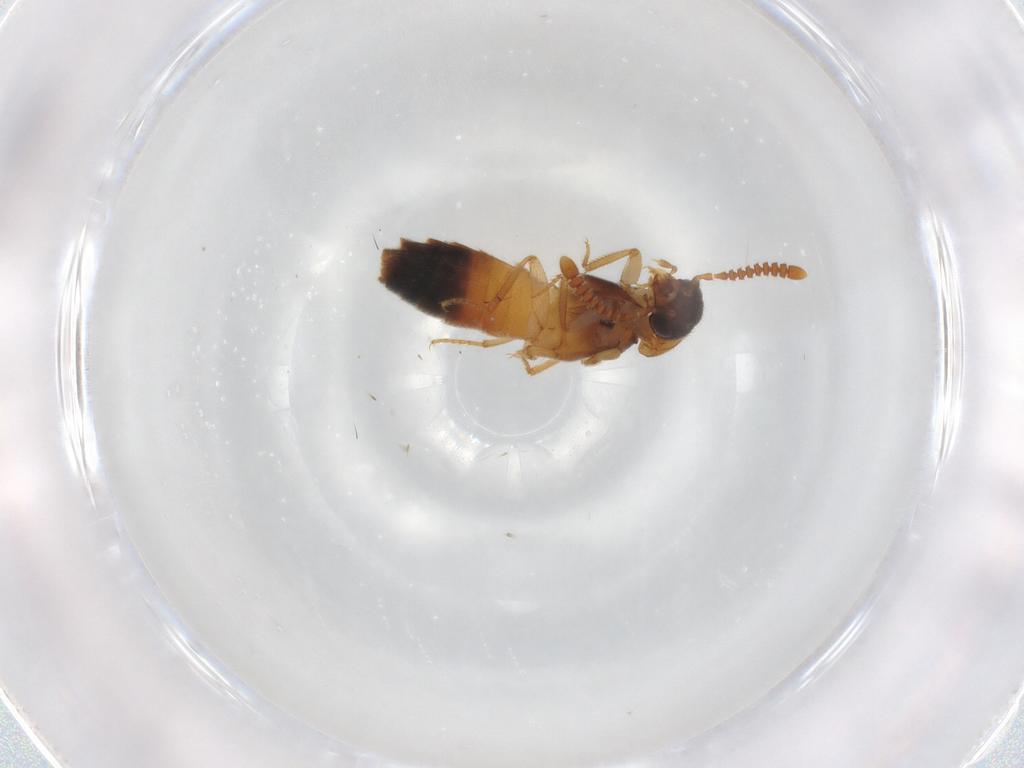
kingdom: Animalia
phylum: Arthropoda
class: Insecta
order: Coleoptera
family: Staphylinidae
